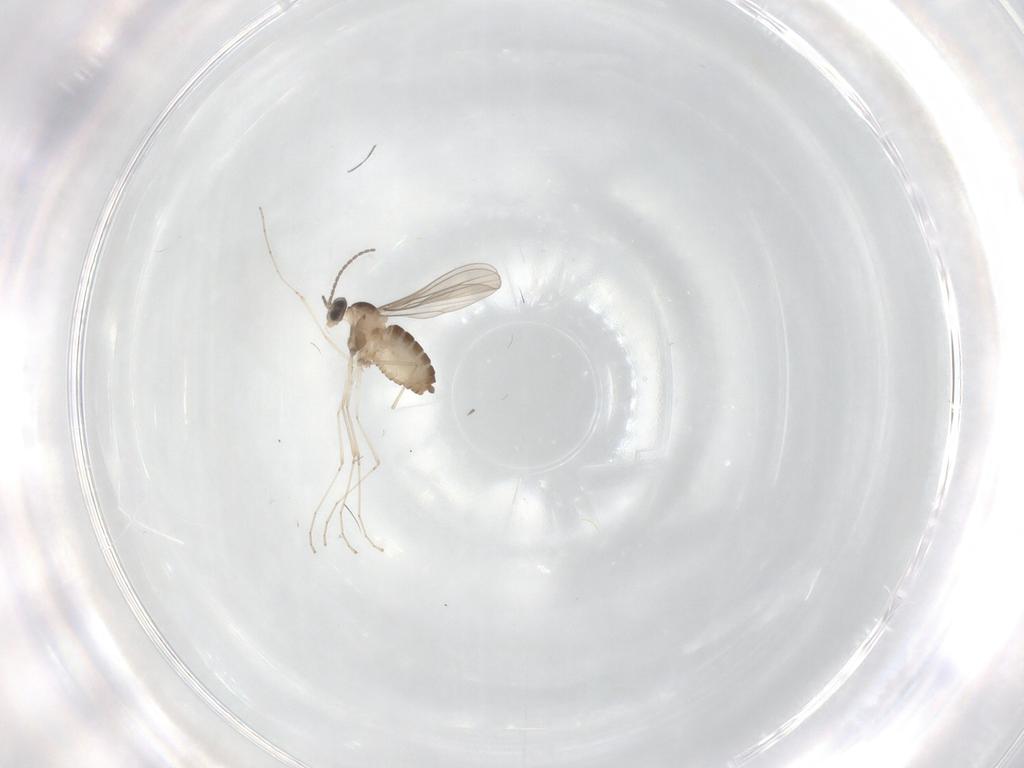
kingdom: Animalia
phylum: Arthropoda
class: Insecta
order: Diptera
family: Cecidomyiidae
